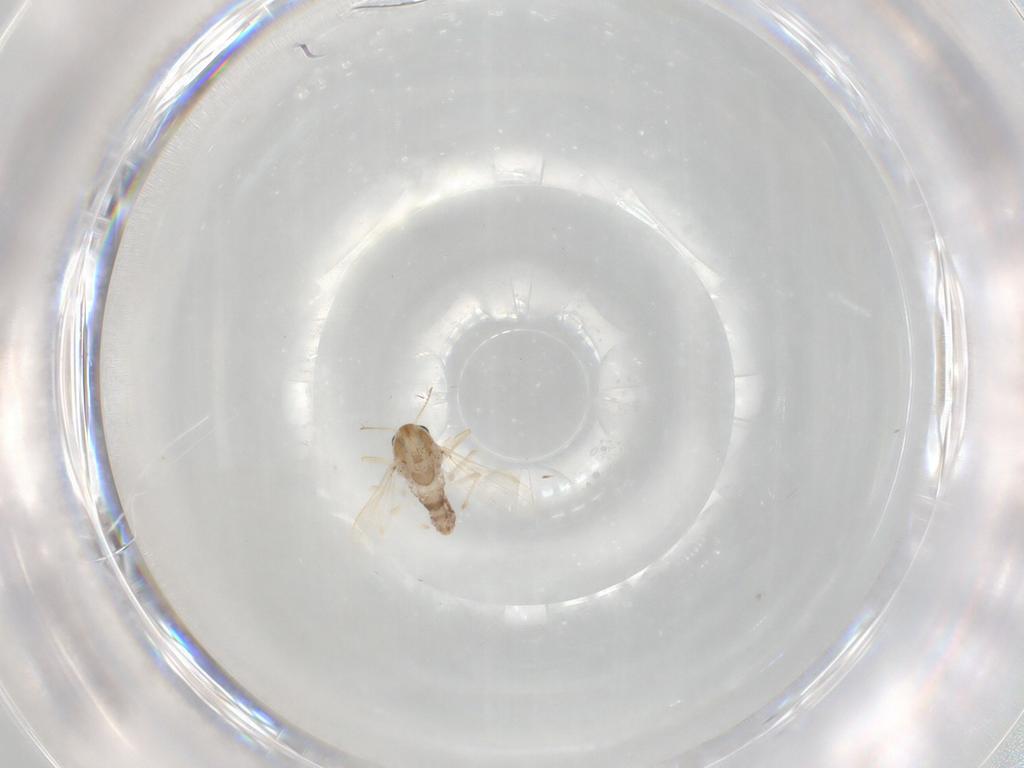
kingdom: Animalia
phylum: Arthropoda
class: Insecta
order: Diptera
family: Chironomidae
